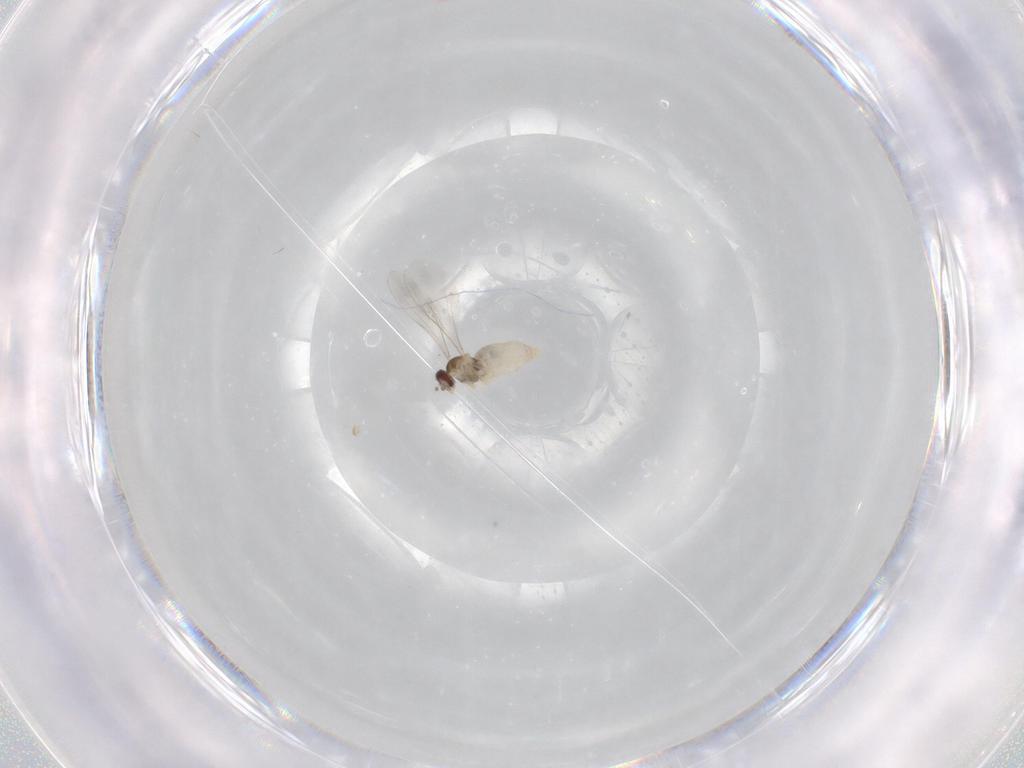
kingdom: Animalia
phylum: Arthropoda
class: Insecta
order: Diptera
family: Cecidomyiidae
